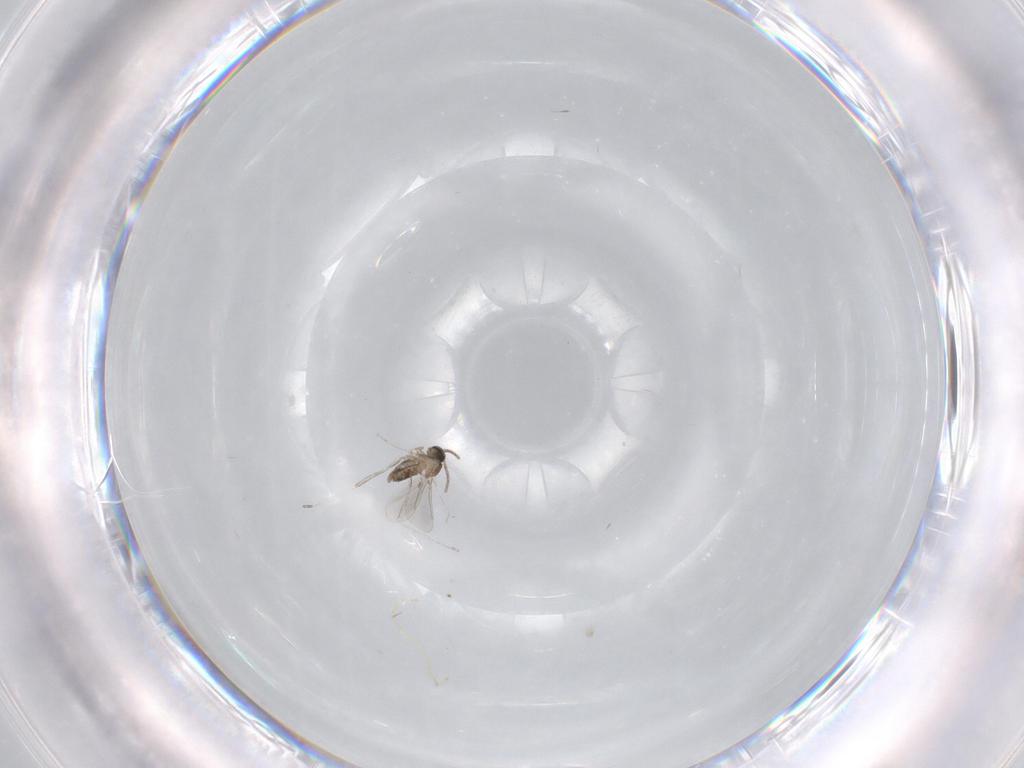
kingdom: Animalia
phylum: Arthropoda
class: Insecta
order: Diptera
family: Cecidomyiidae
